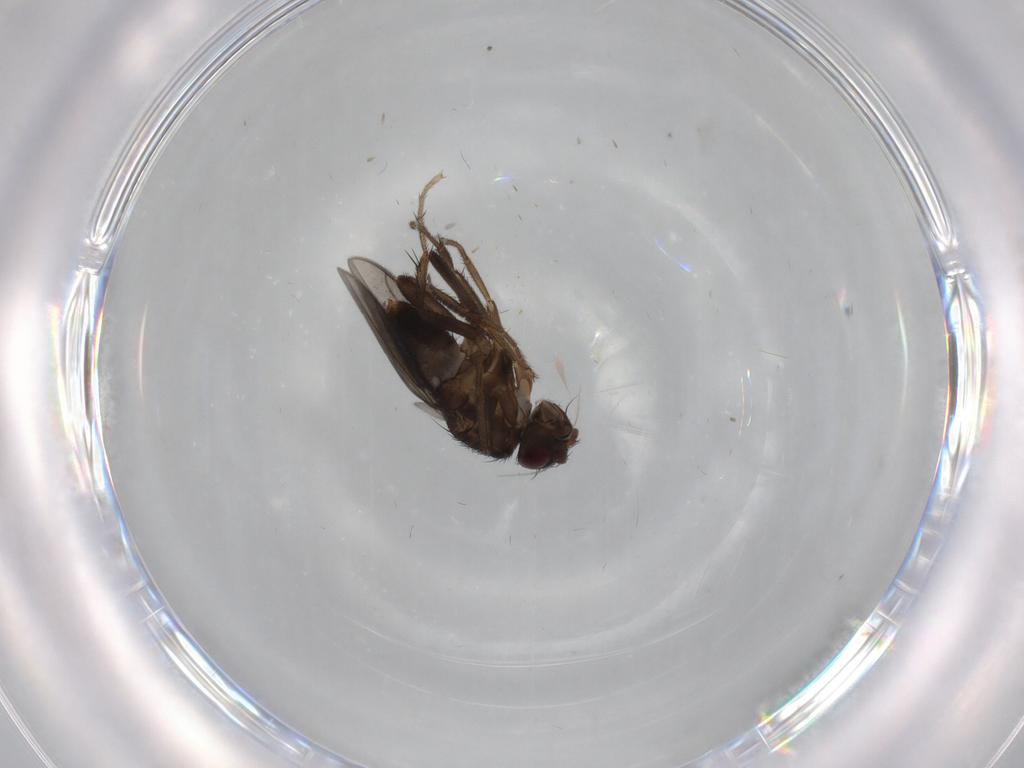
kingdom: Animalia
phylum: Arthropoda
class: Insecta
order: Diptera
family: Sphaeroceridae
